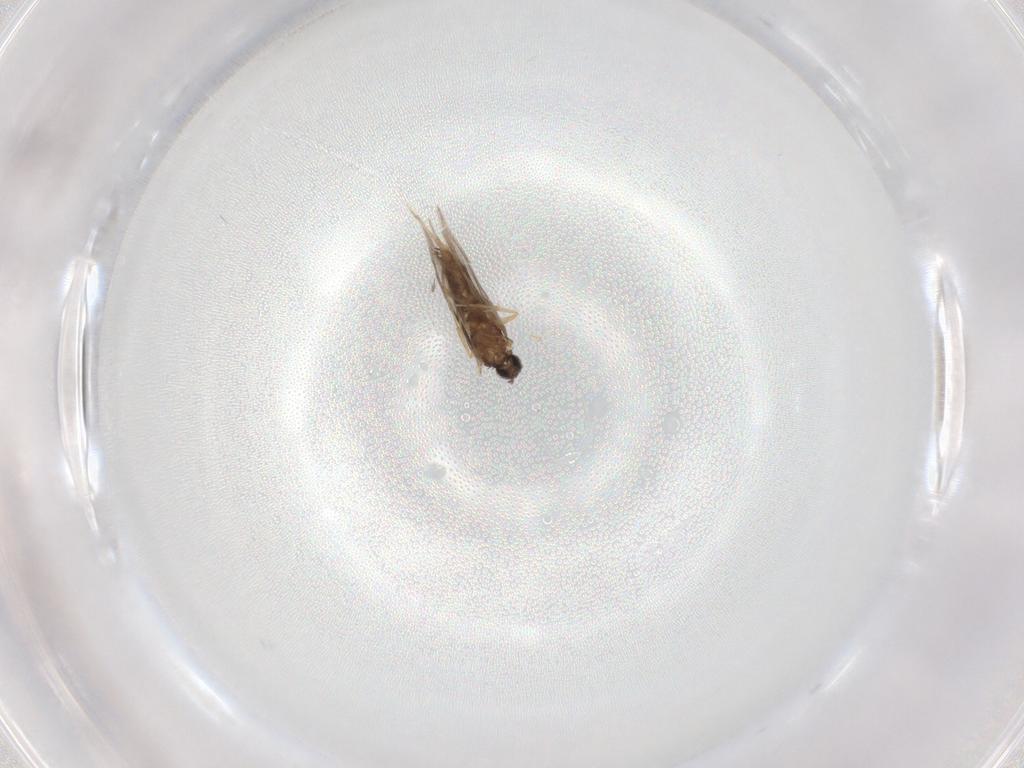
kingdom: Animalia
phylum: Arthropoda
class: Insecta
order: Trichoptera
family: Hydroptilidae
